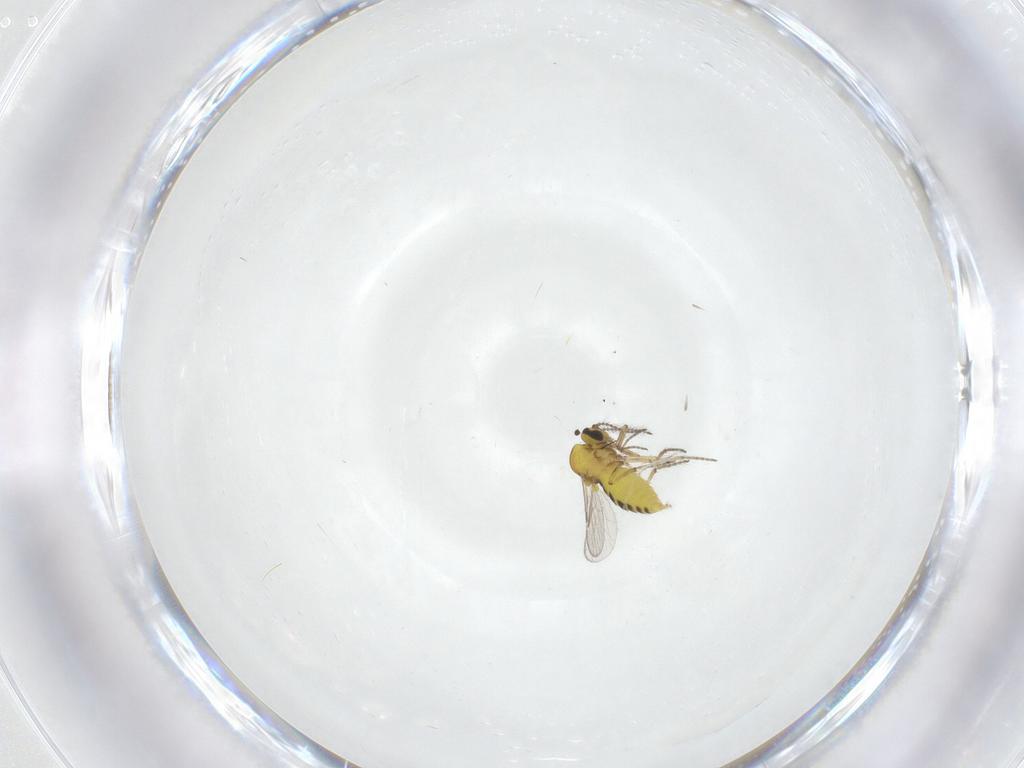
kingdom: Animalia
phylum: Arthropoda
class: Insecta
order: Diptera
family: Ceratopogonidae
